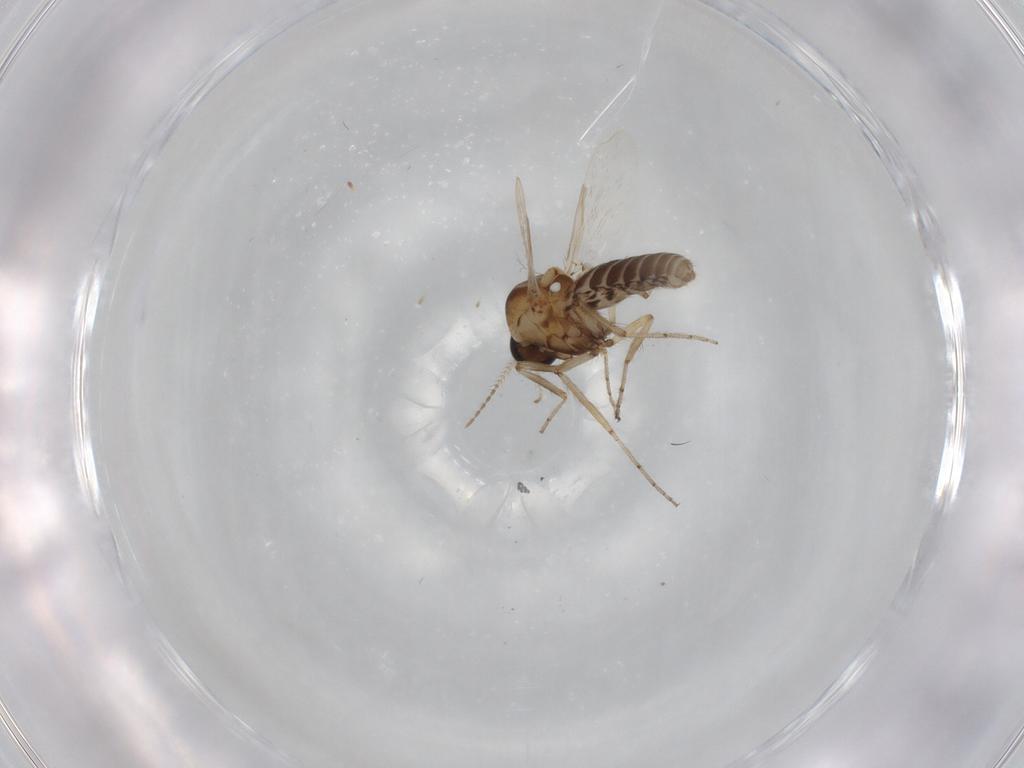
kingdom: Animalia
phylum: Arthropoda
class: Insecta
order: Diptera
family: Ceratopogonidae
